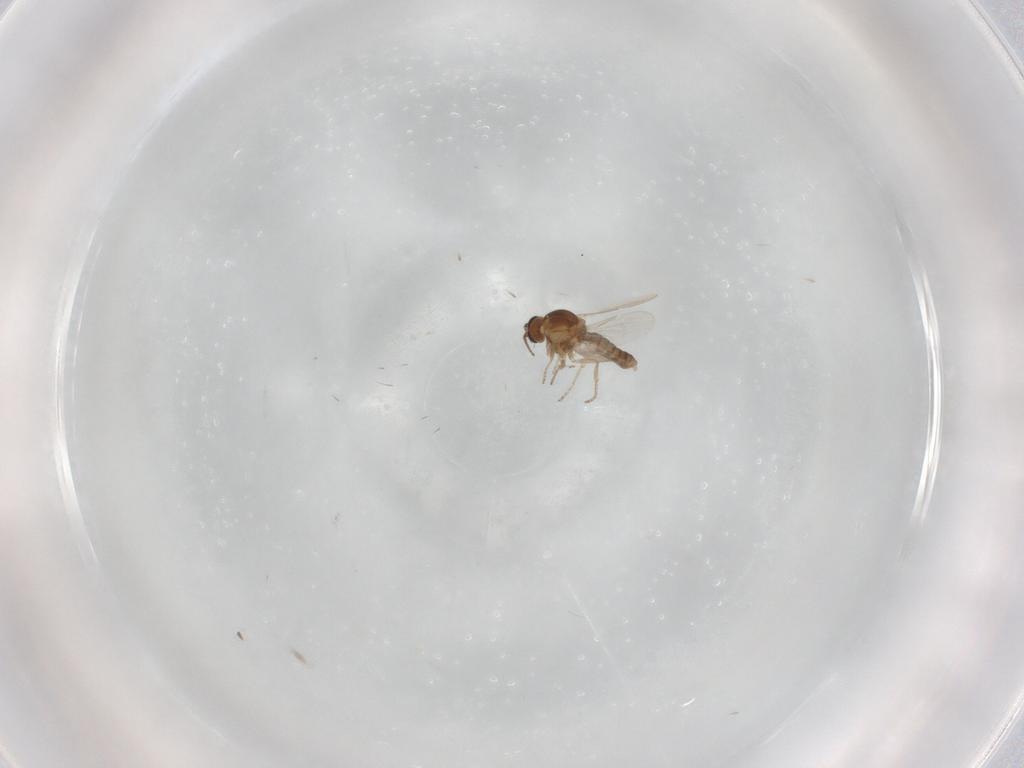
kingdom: Animalia
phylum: Arthropoda
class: Insecta
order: Diptera
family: Ceratopogonidae
